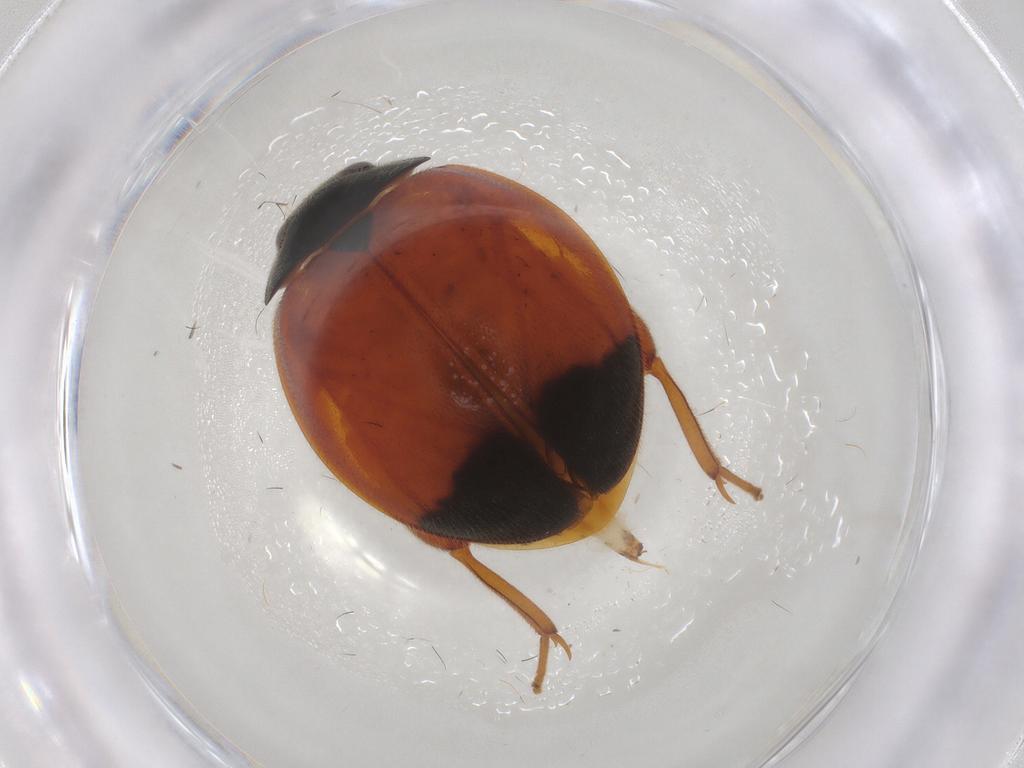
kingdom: Animalia
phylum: Arthropoda
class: Insecta
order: Coleoptera
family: Scirtidae
